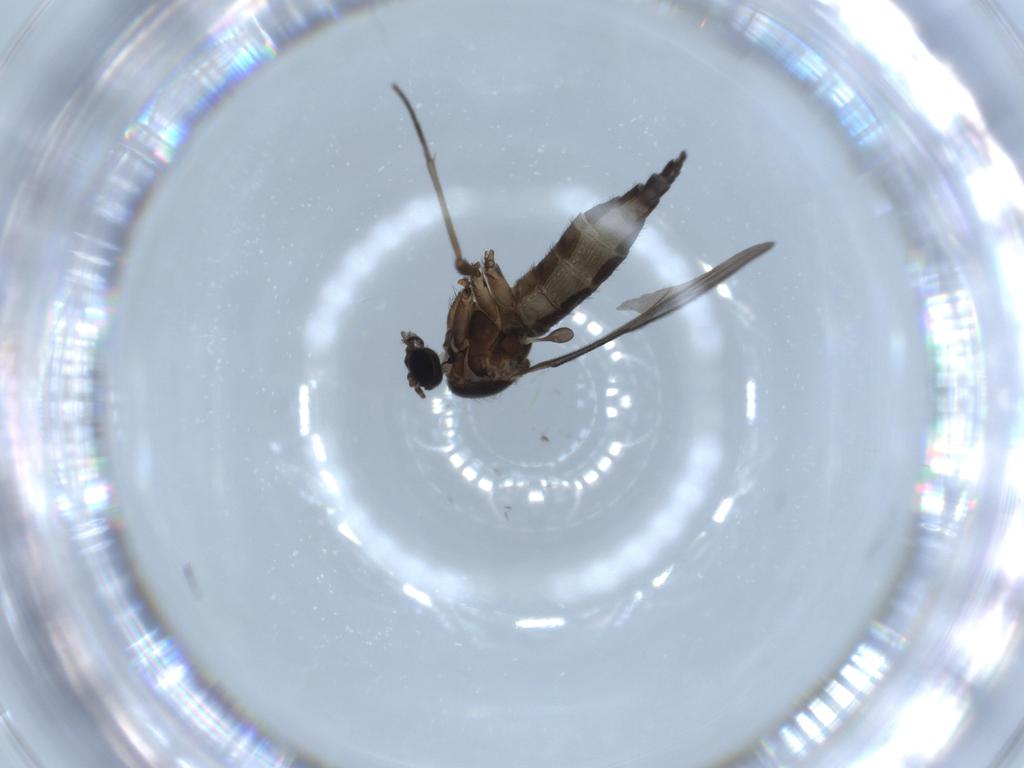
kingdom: Animalia
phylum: Arthropoda
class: Insecta
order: Diptera
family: Sciaridae
